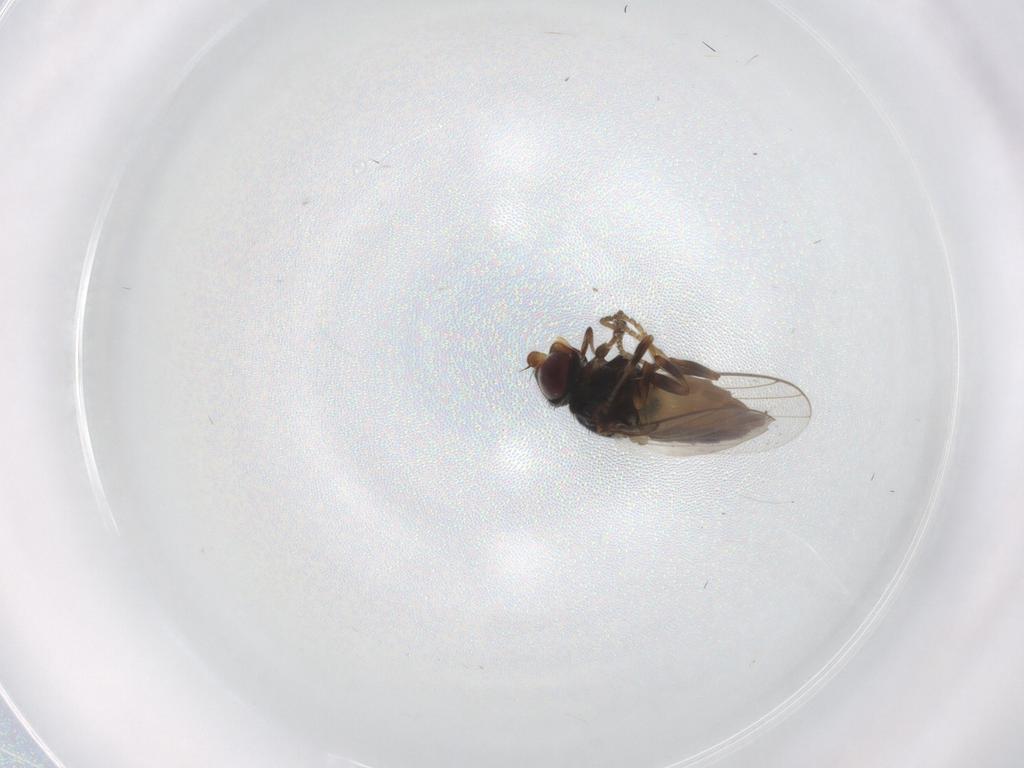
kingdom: Animalia
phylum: Arthropoda
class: Insecta
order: Diptera
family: Chloropidae
